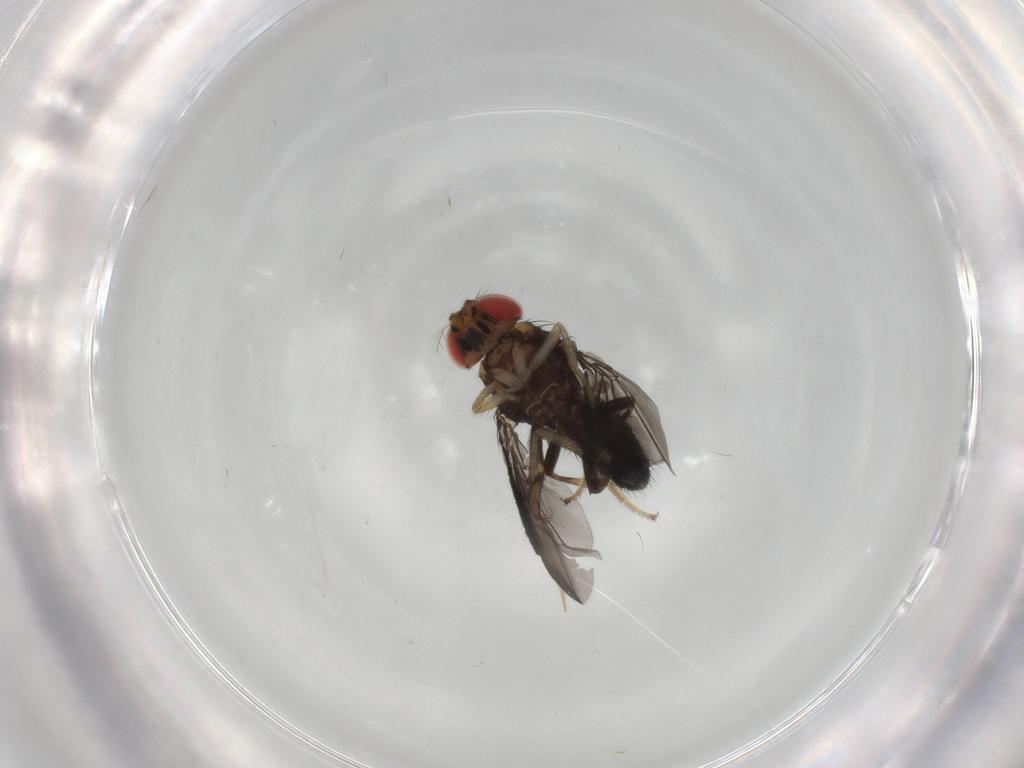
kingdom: Animalia
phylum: Arthropoda
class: Insecta
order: Diptera
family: Drosophilidae
